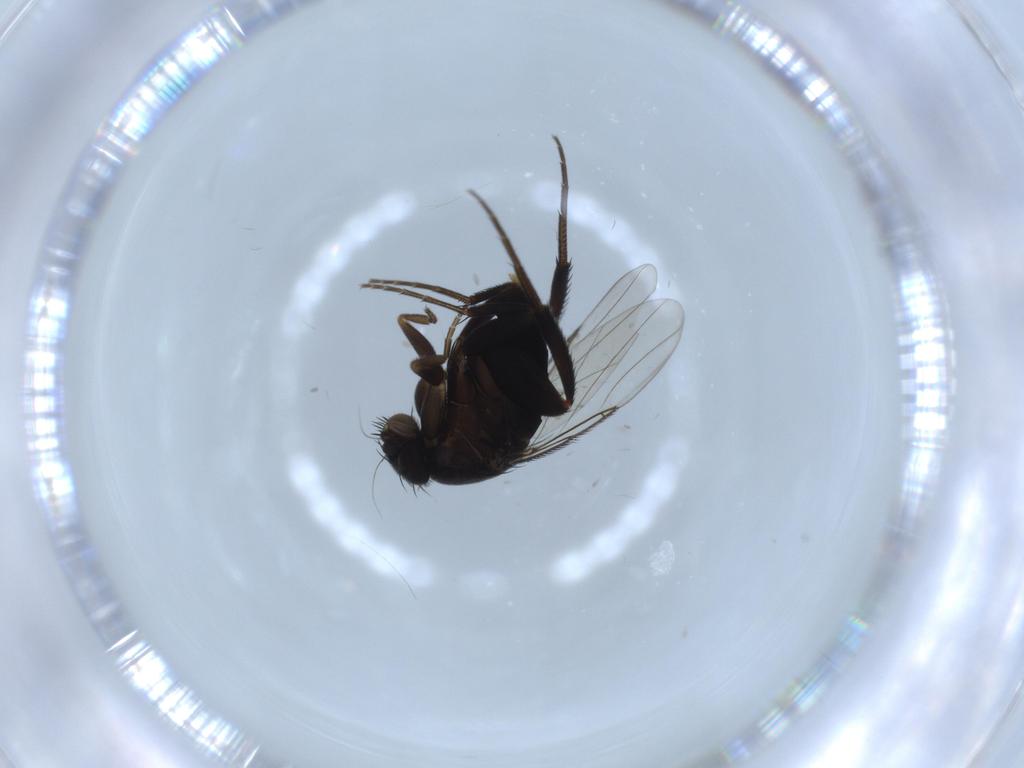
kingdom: Animalia
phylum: Arthropoda
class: Insecta
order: Diptera
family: Phoridae
